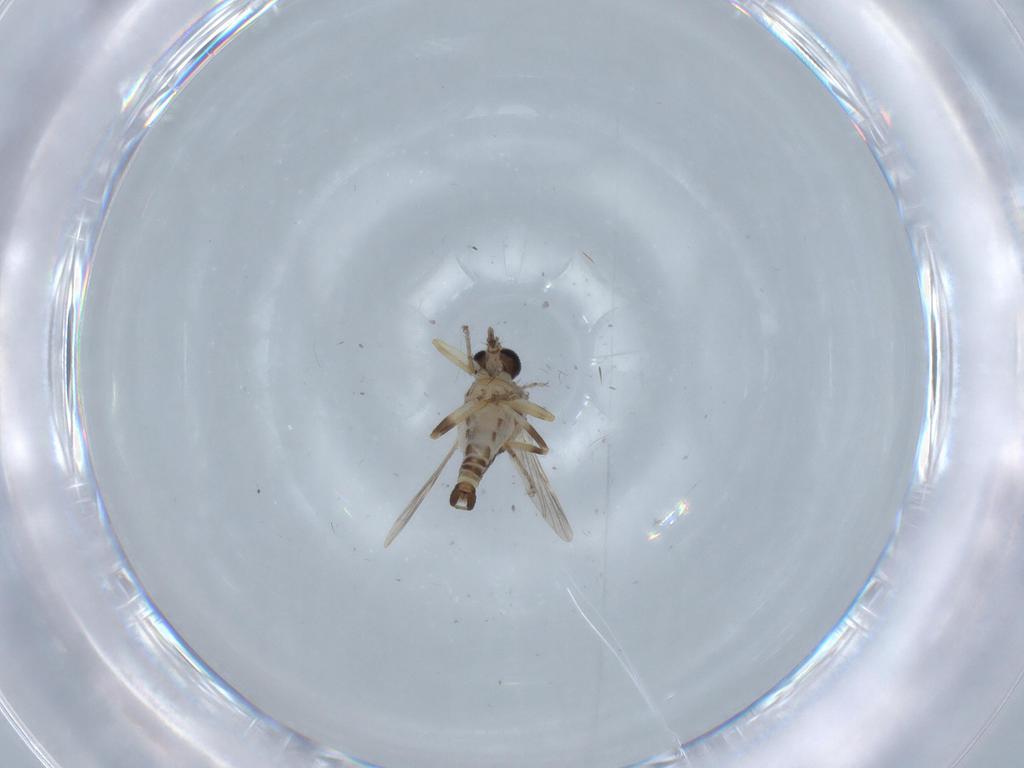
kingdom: Animalia
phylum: Arthropoda
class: Insecta
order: Diptera
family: Ceratopogonidae
